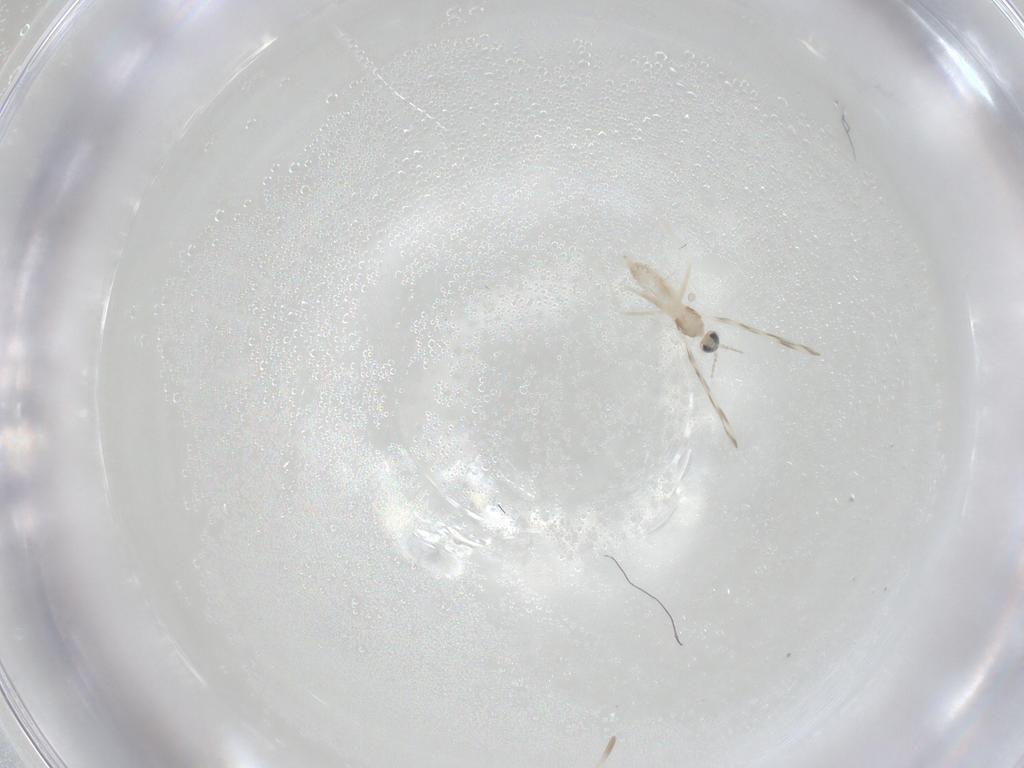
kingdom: Animalia
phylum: Arthropoda
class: Insecta
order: Diptera
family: Cecidomyiidae
